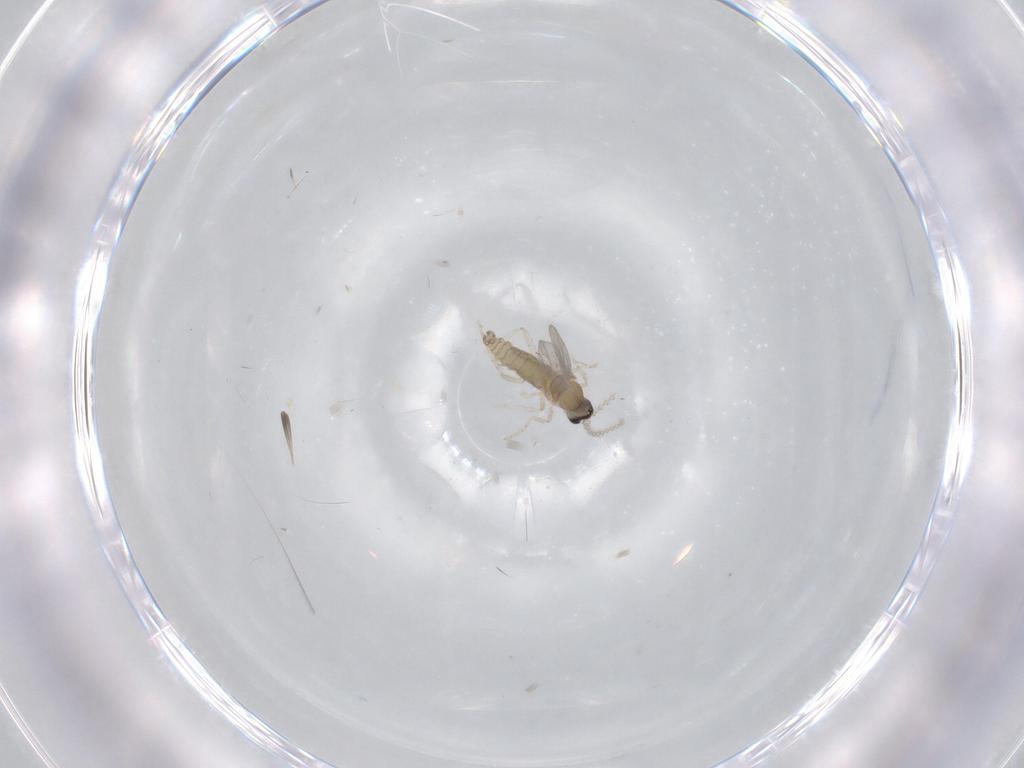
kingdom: Animalia
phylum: Arthropoda
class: Insecta
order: Diptera
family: Cecidomyiidae
